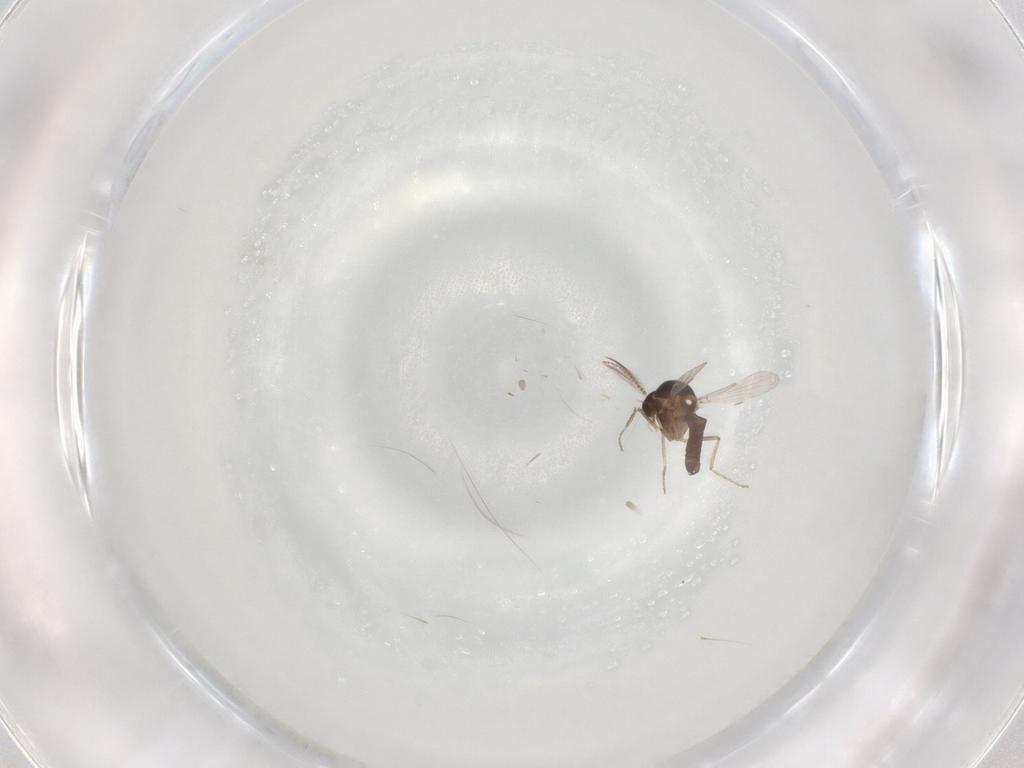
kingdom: Animalia
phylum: Arthropoda
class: Insecta
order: Diptera
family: Ceratopogonidae
